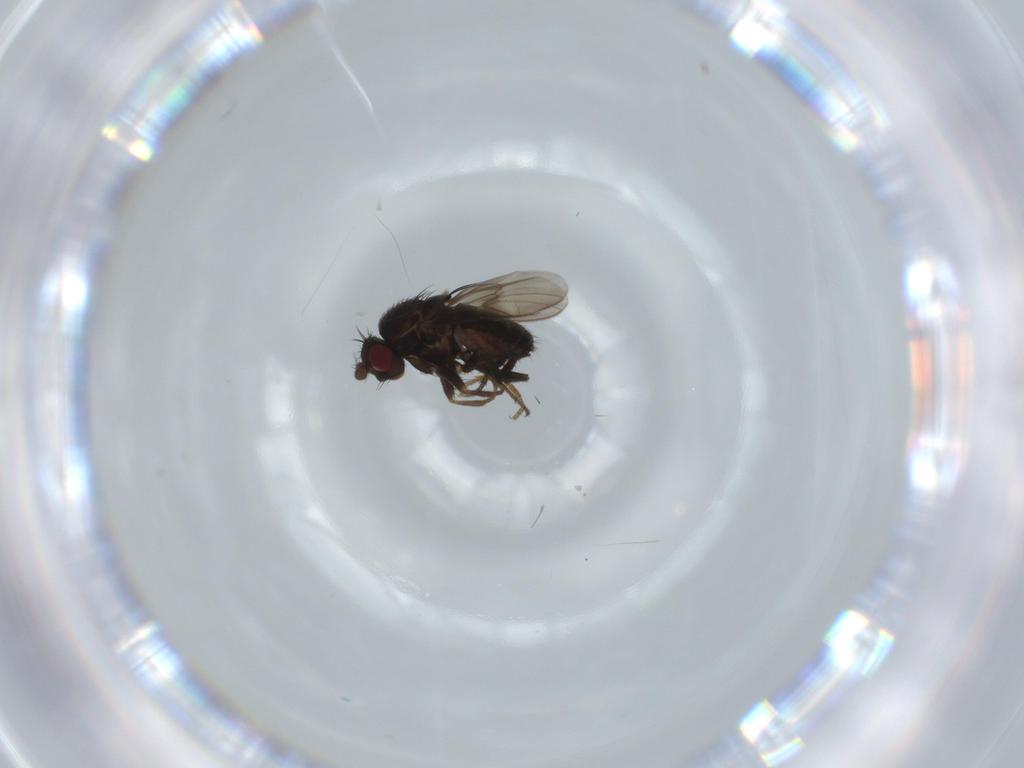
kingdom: Animalia
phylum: Arthropoda
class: Insecta
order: Diptera
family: Sphaeroceridae
